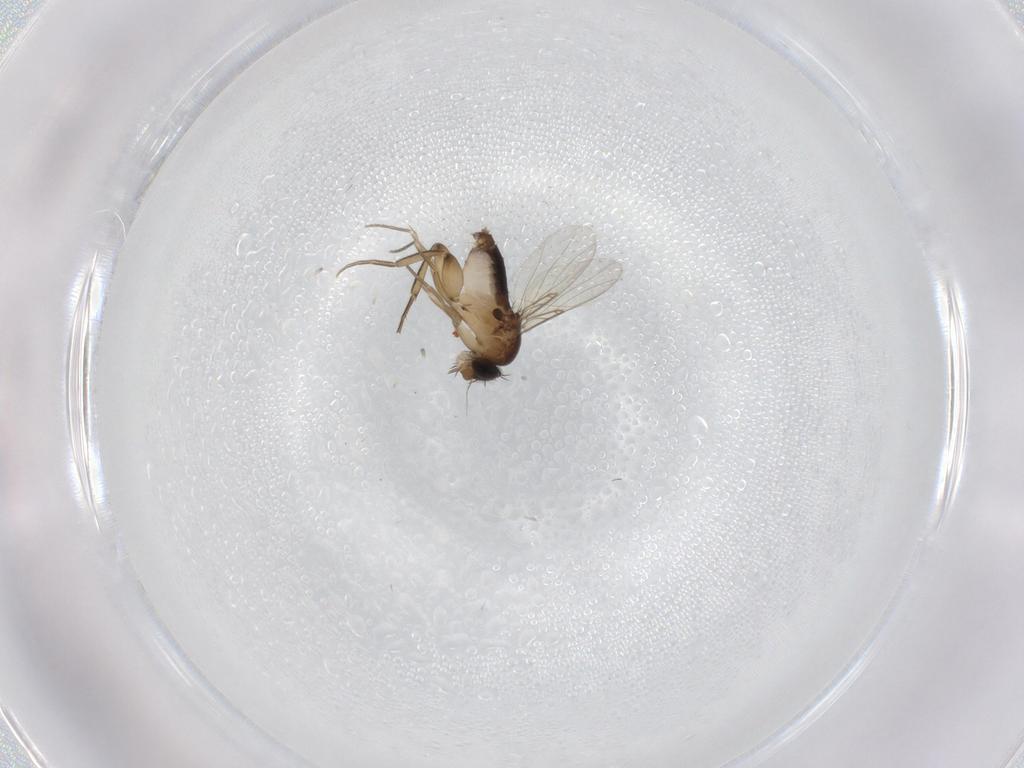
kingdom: Animalia
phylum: Arthropoda
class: Insecta
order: Diptera
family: Phoridae
